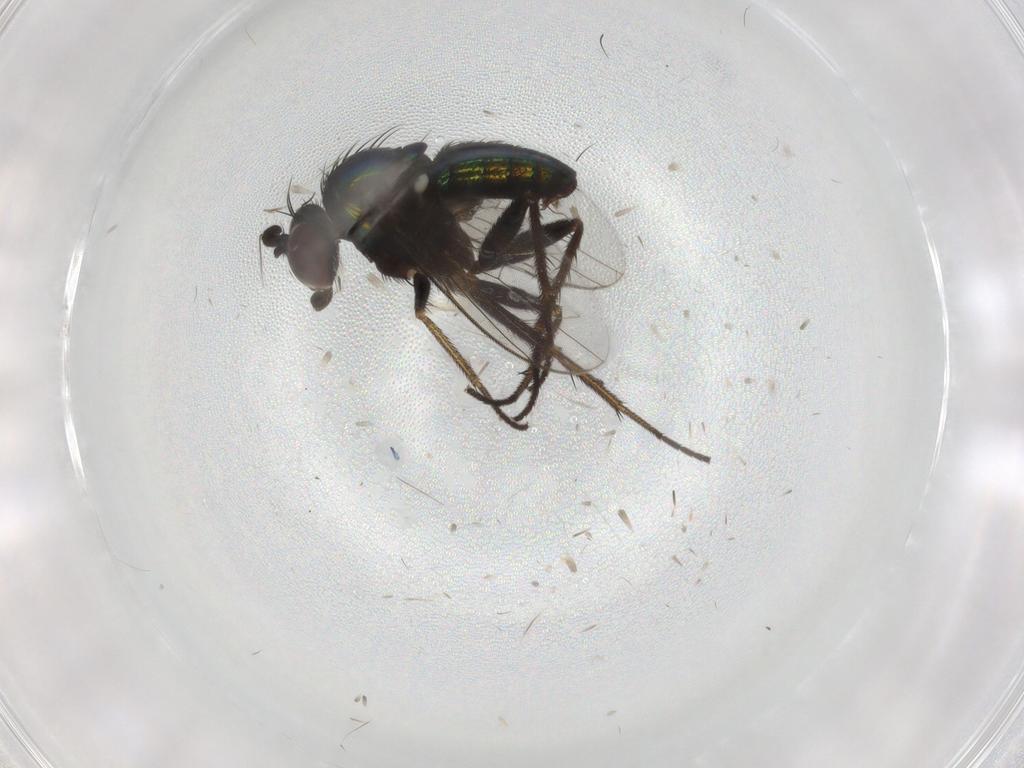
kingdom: Animalia
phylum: Arthropoda
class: Insecta
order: Diptera
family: Dolichopodidae
